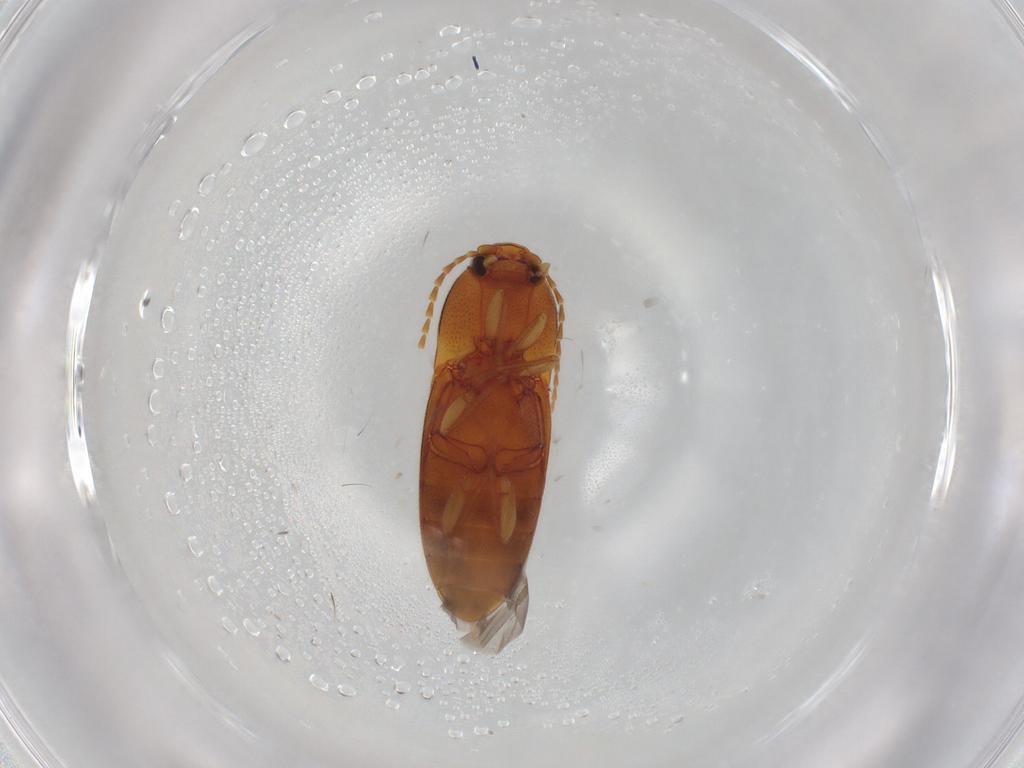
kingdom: Animalia
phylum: Arthropoda
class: Insecta
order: Coleoptera
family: Elateridae
